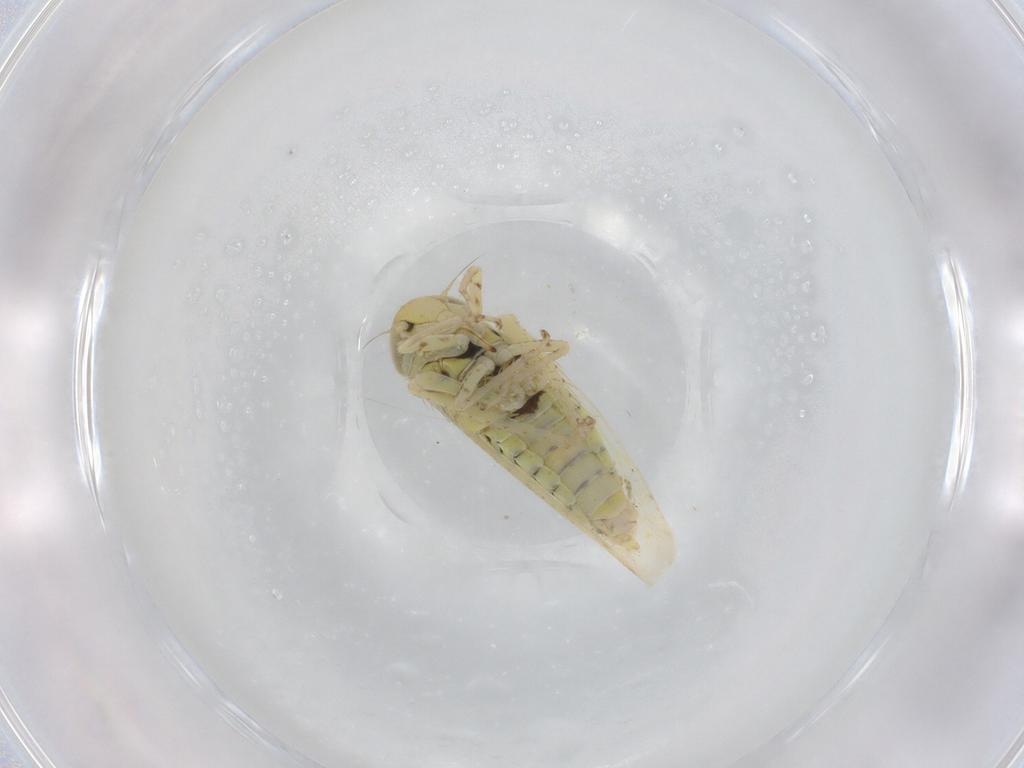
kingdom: Animalia
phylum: Arthropoda
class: Insecta
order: Hemiptera
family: Cicadellidae
